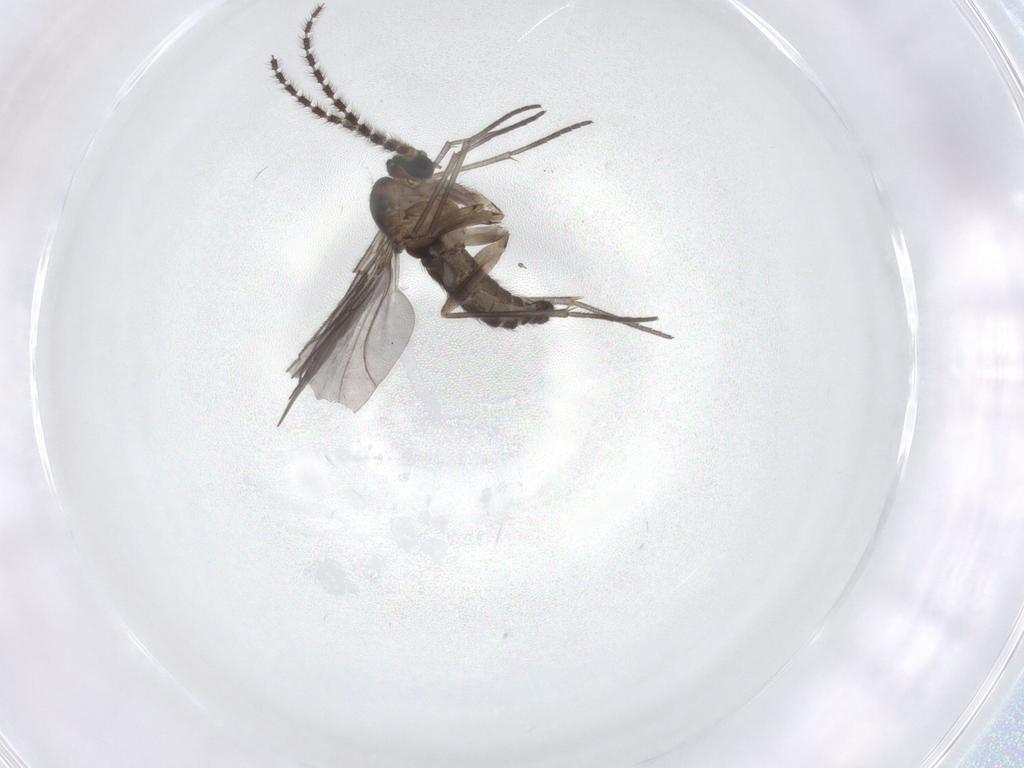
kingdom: Animalia
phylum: Arthropoda
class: Insecta
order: Diptera
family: Sciaridae
